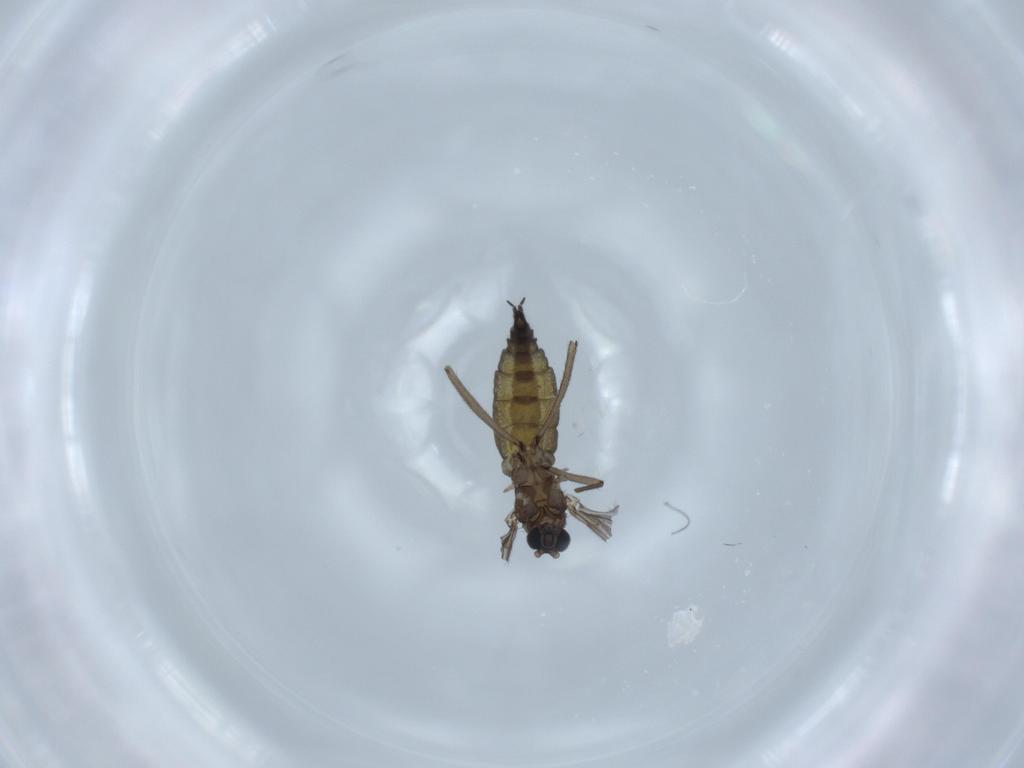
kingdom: Animalia
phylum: Arthropoda
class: Insecta
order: Diptera
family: Sciaridae
